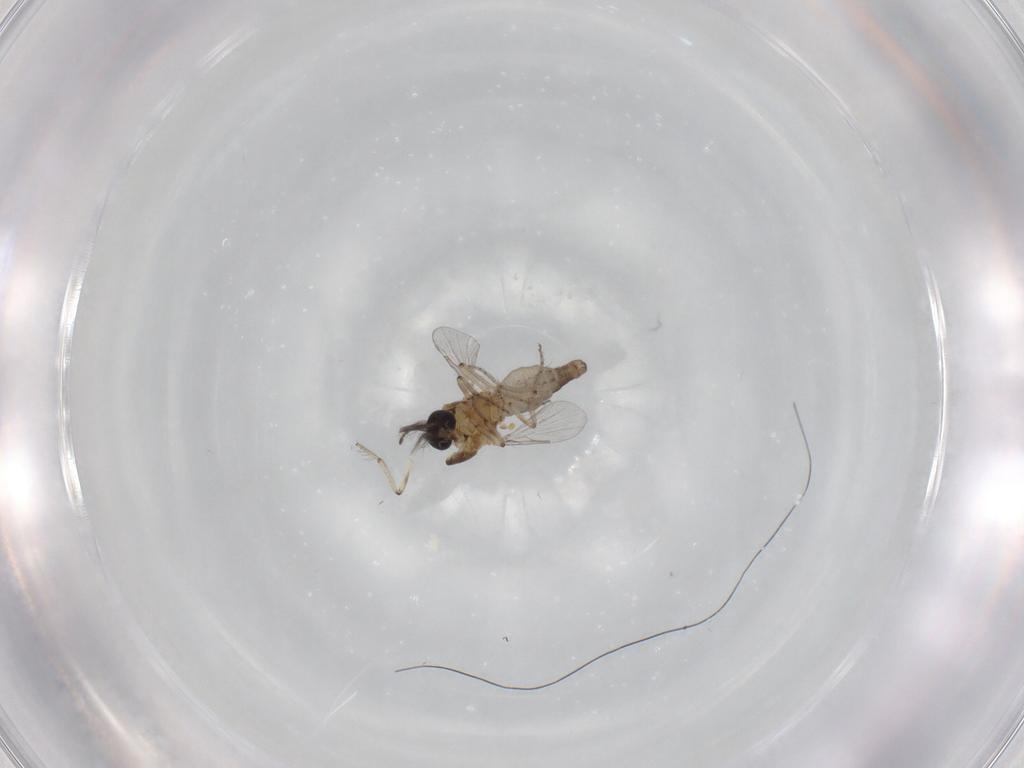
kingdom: Animalia
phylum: Arthropoda
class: Insecta
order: Diptera
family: Ceratopogonidae
